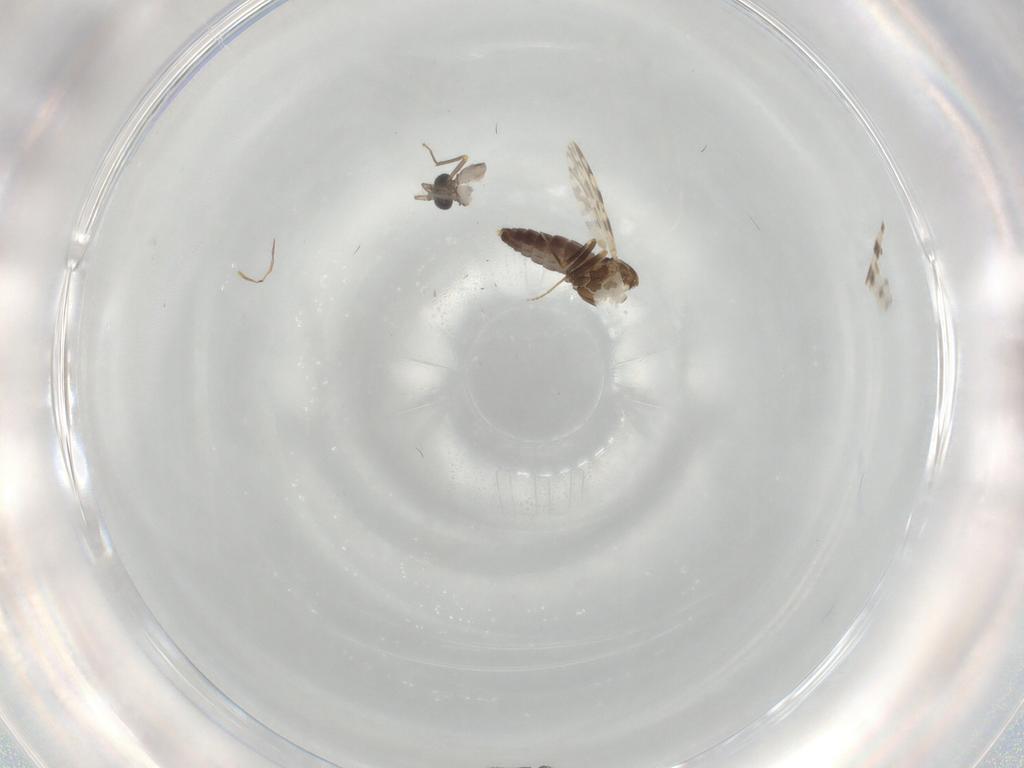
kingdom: Animalia
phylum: Arthropoda
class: Insecta
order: Diptera
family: Ceratopogonidae
